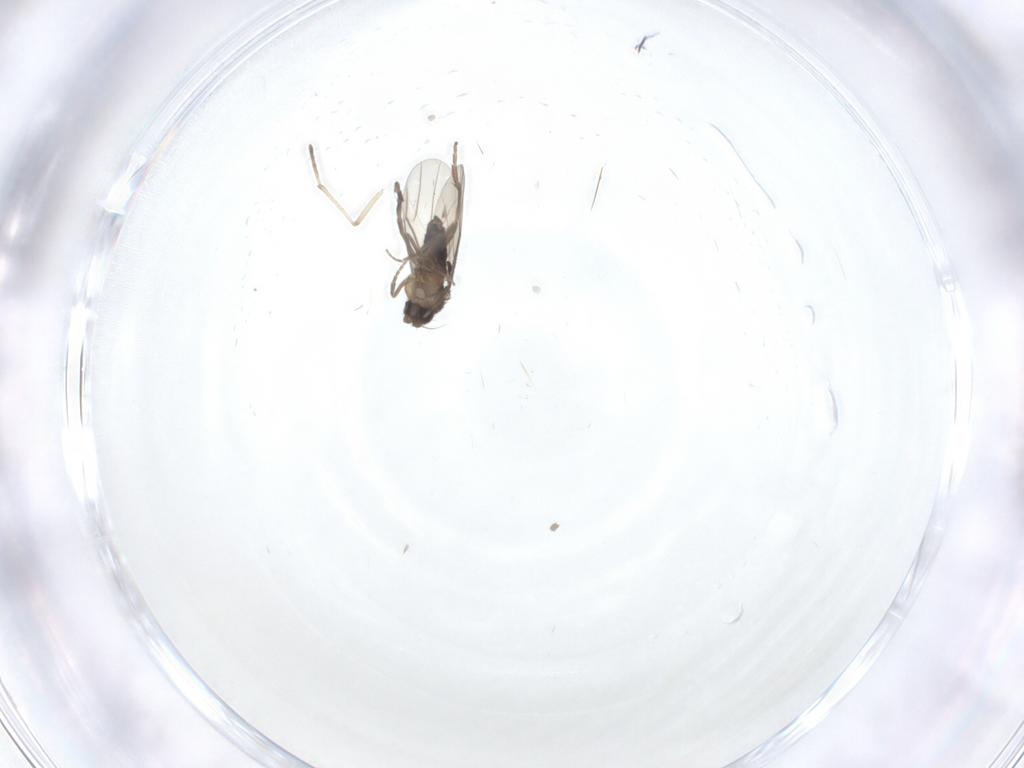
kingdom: Animalia
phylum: Arthropoda
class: Insecta
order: Diptera
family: Phoridae
